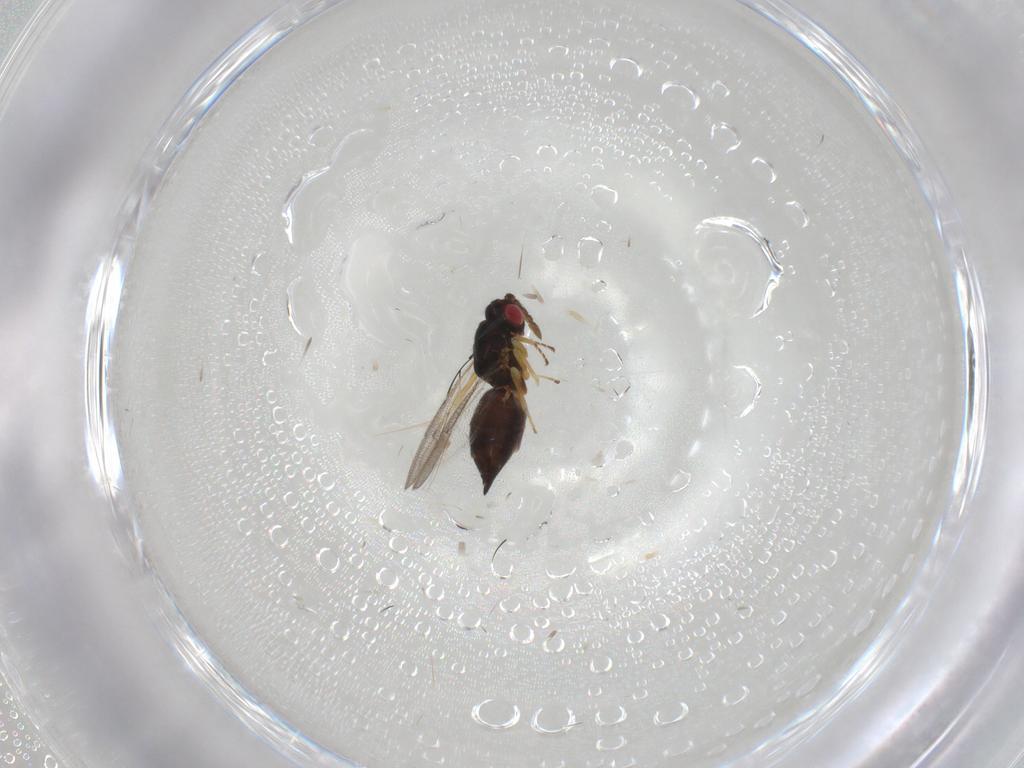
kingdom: Animalia
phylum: Arthropoda
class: Insecta
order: Hymenoptera
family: Eulophidae
